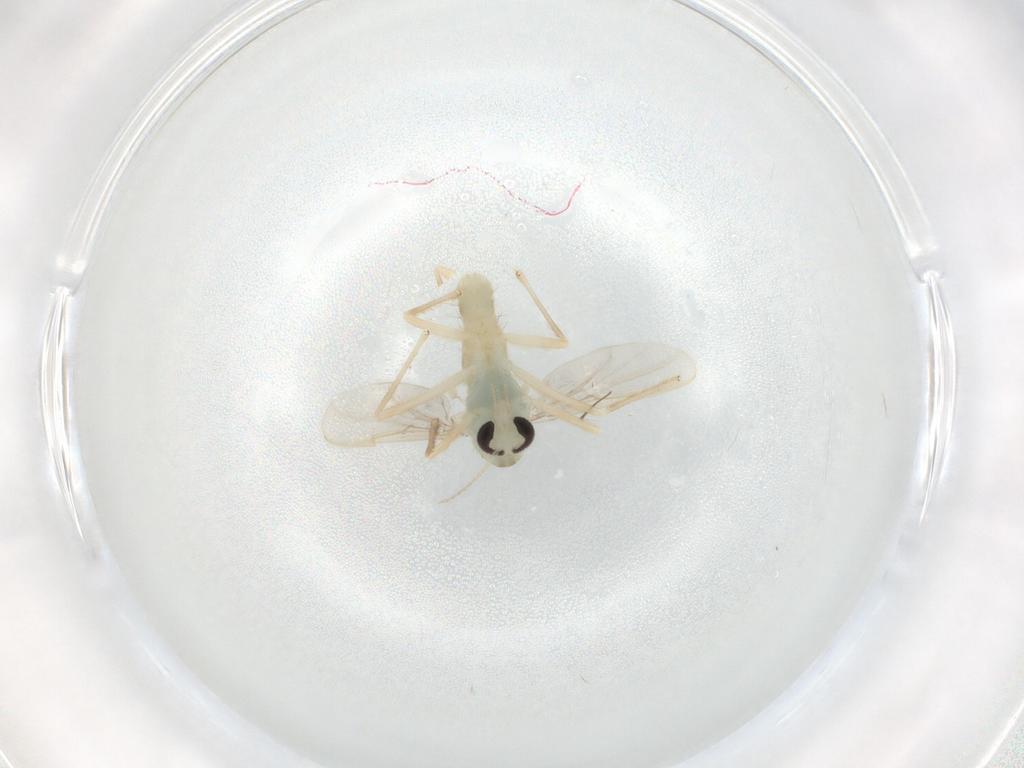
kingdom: Animalia
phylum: Arthropoda
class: Insecta
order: Diptera
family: Chironomidae
